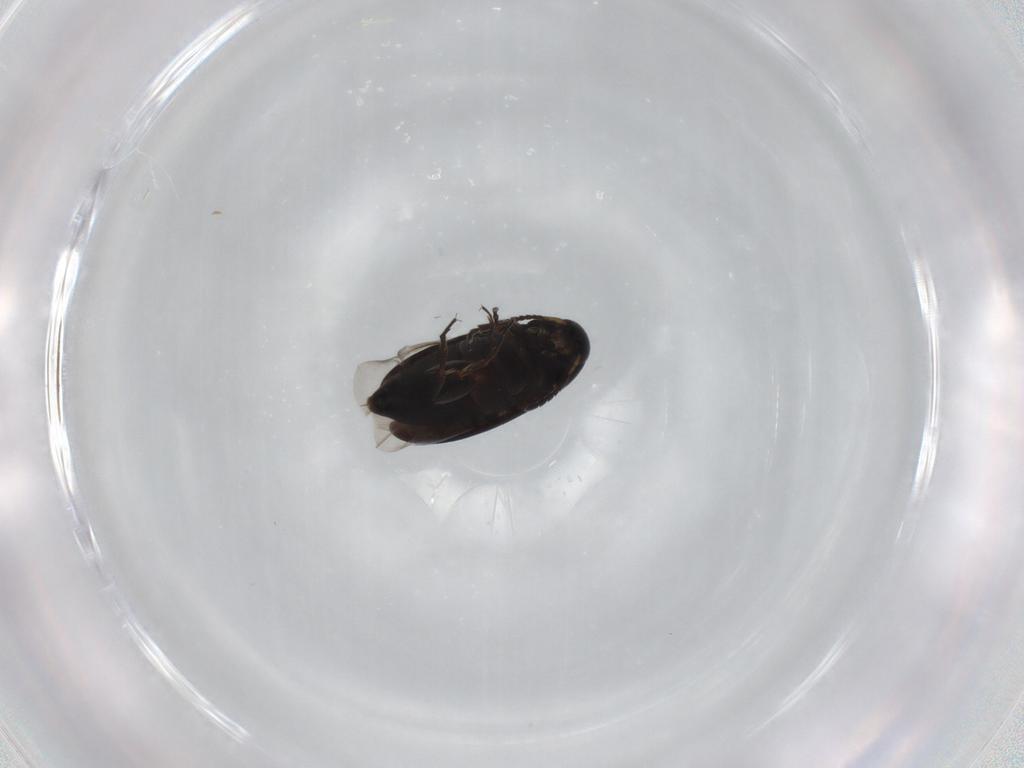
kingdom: Animalia
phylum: Arthropoda
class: Insecta
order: Coleoptera
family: Scraptiidae
